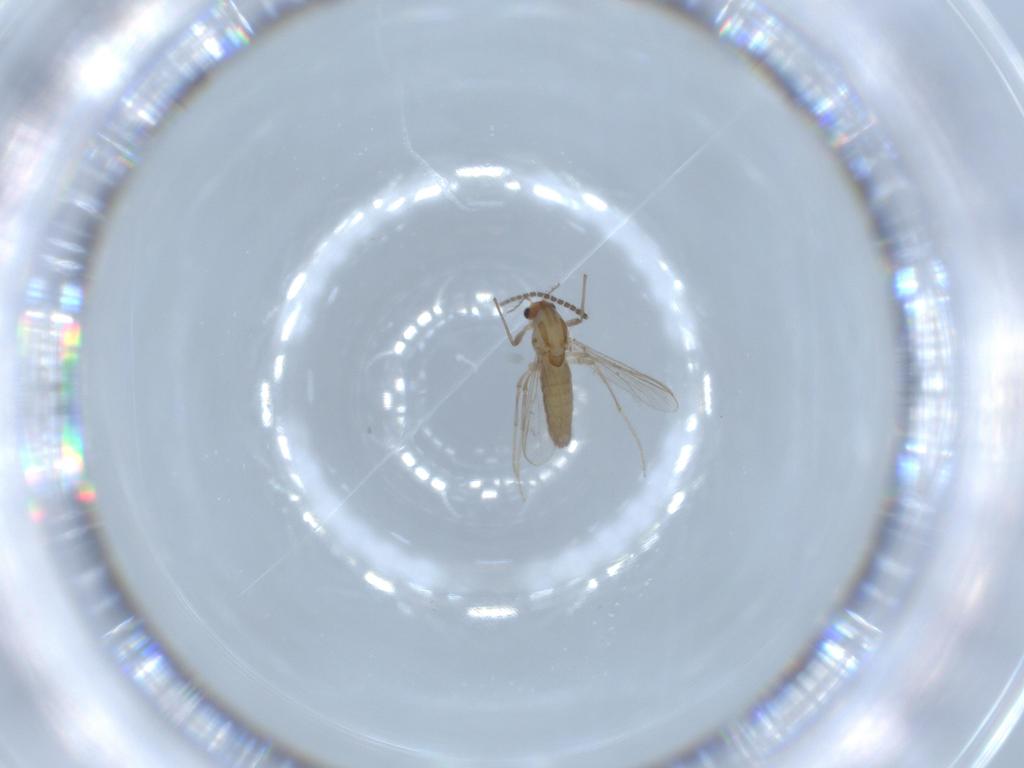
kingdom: Animalia
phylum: Arthropoda
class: Insecta
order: Diptera
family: Chironomidae
